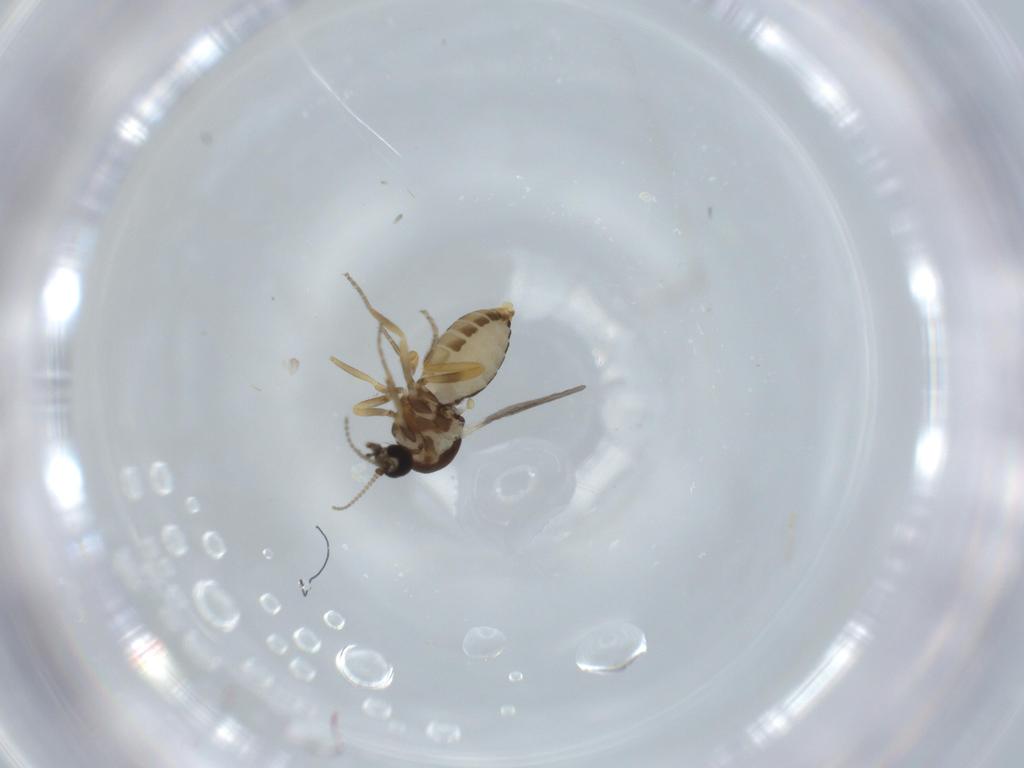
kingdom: Animalia
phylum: Arthropoda
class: Insecta
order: Diptera
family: Ceratopogonidae
